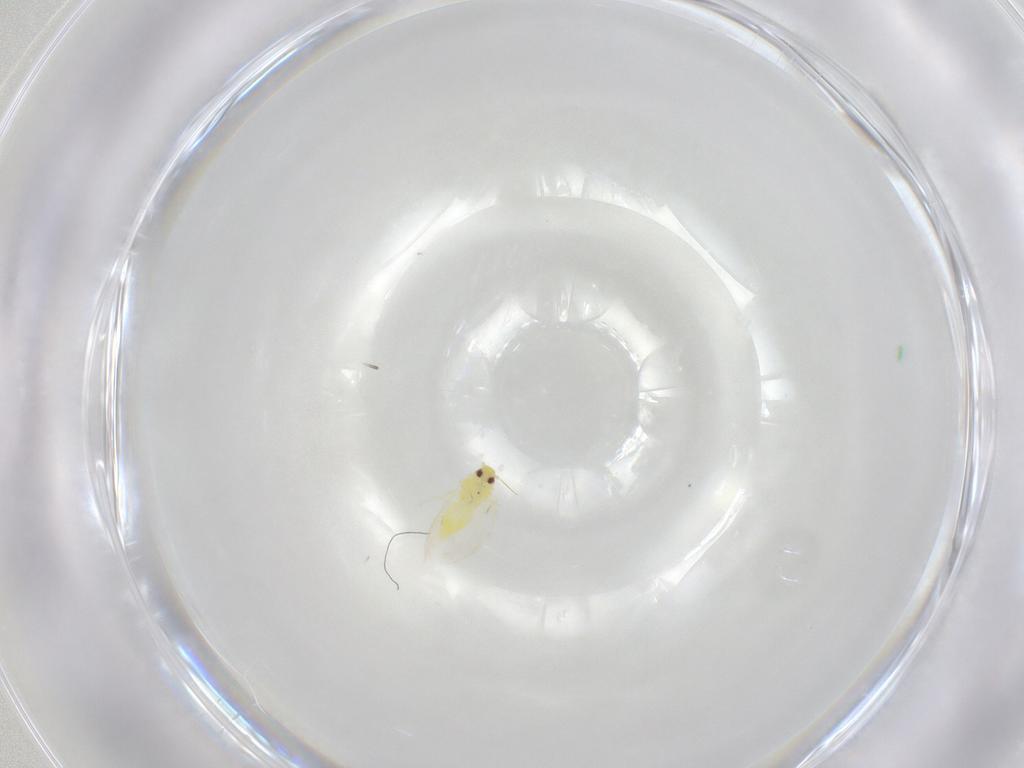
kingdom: Animalia
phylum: Arthropoda
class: Insecta
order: Hemiptera
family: Aleyrodidae
